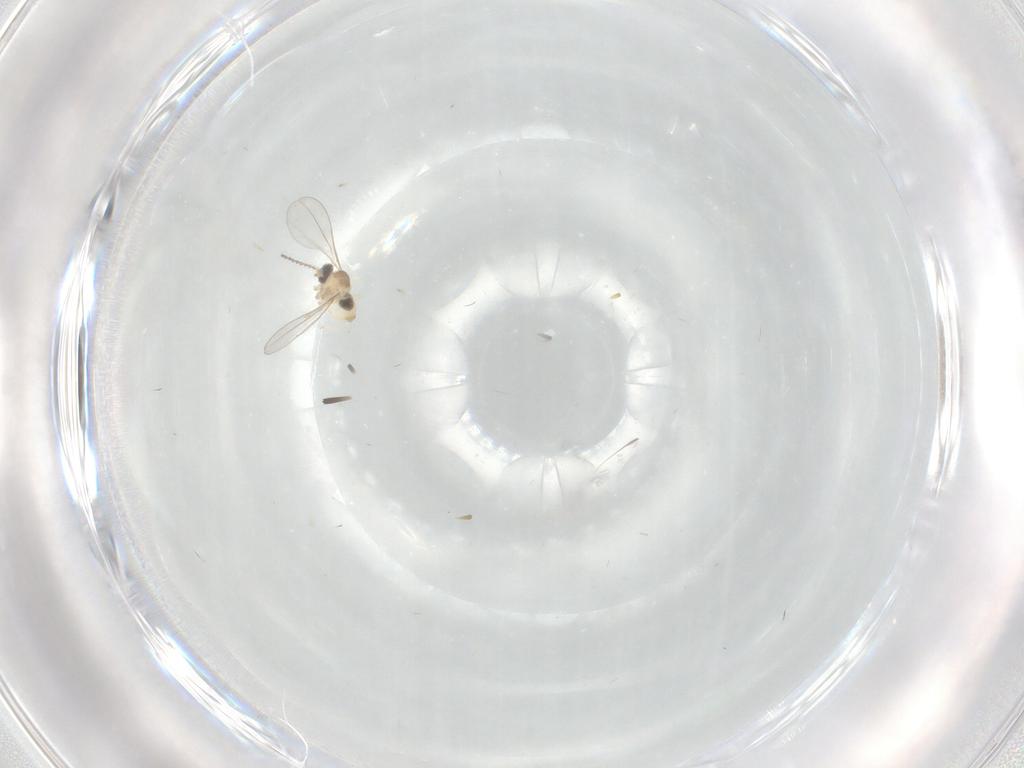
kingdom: Animalia
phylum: Arthropoda
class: Insecta
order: Diptera
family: Cecidomyiidae
